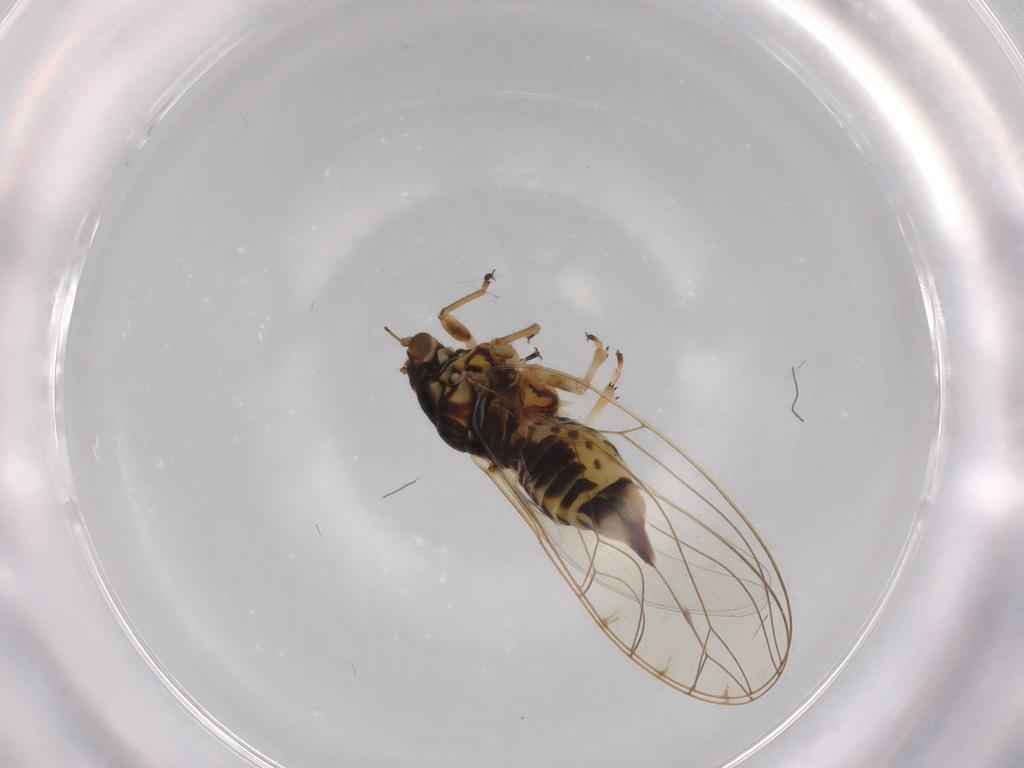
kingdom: Animalia
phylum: Arthropoda
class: Insecta
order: Hemiptera
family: Triozidae
